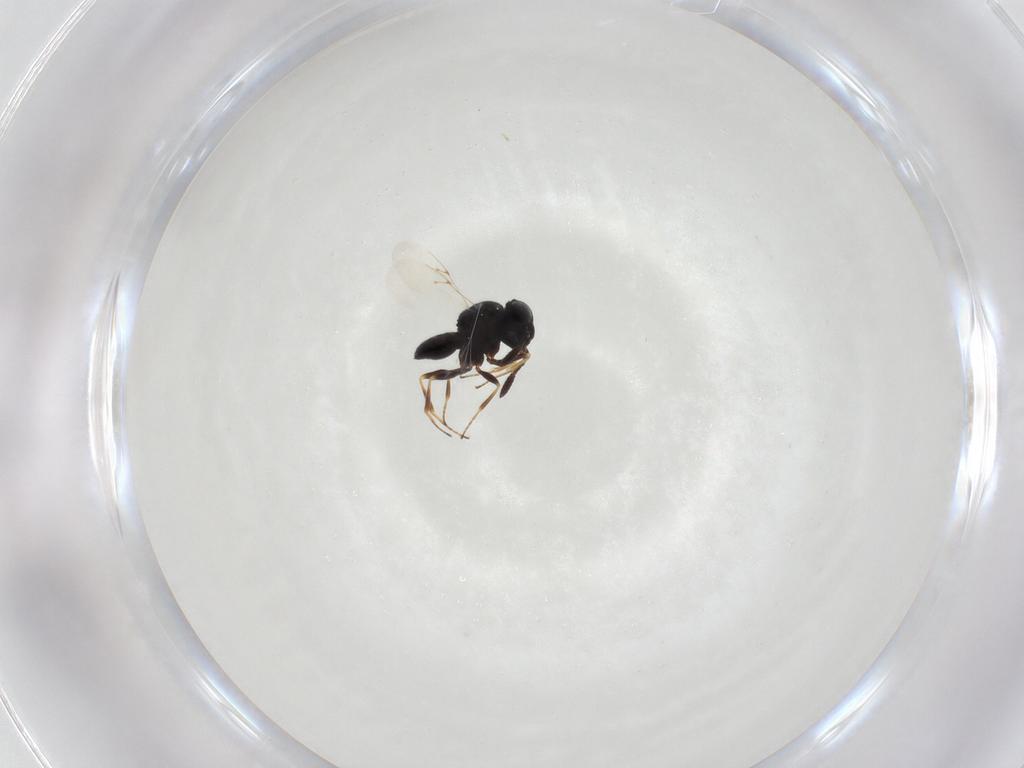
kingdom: Animalia
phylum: Arthropoda
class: Insecta
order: Hymenoptera
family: Scelionidae
